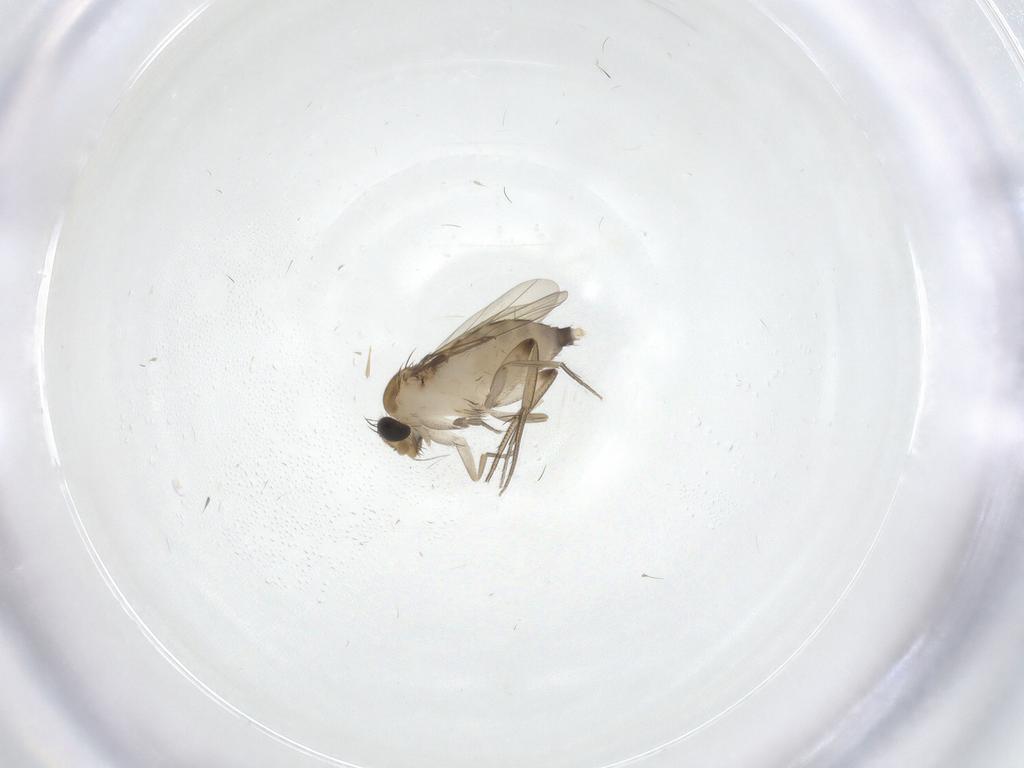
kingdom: Animalia
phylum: Arthropoda
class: Insecta
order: Diptera
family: Phoridae
